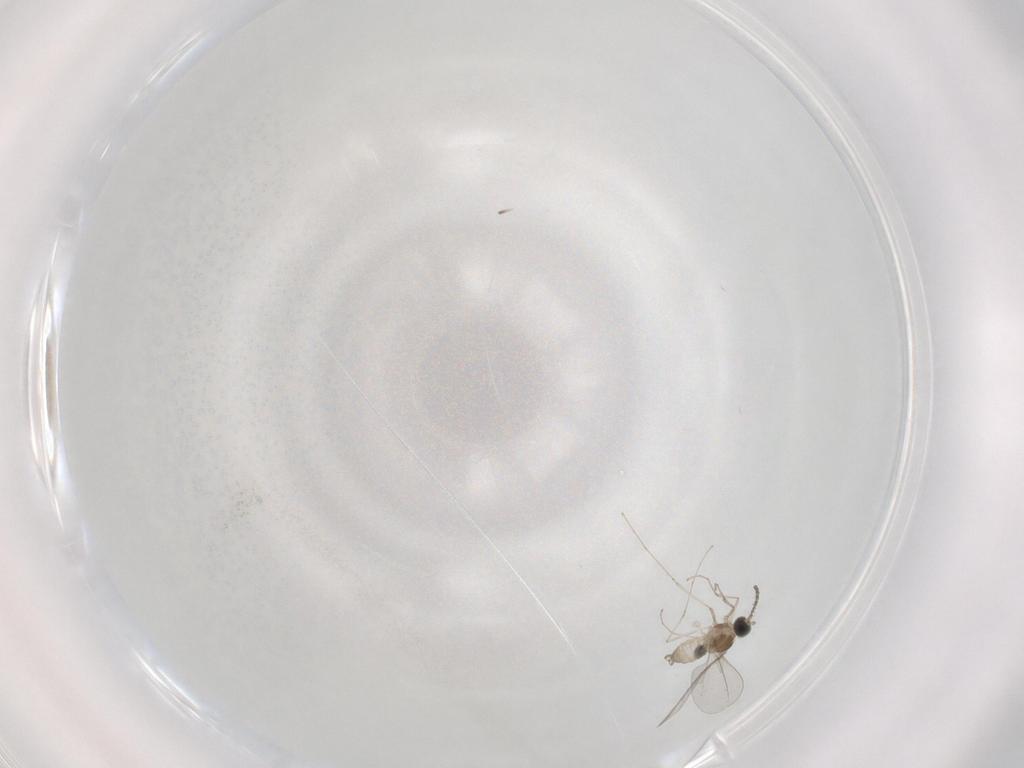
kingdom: Animalia
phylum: Arthropoda
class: Insecta
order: Diptera
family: Cecidomyiidae
